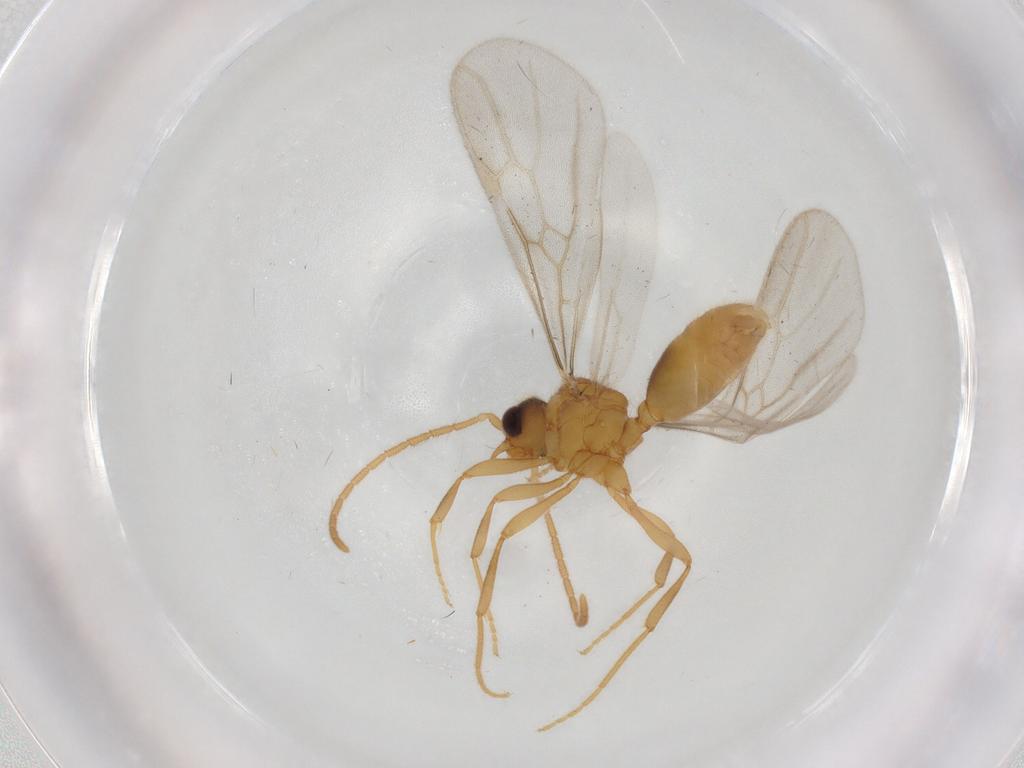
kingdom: Animalia
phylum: Arthropoda
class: Insecta
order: Hymenoptera
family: Formicidae
